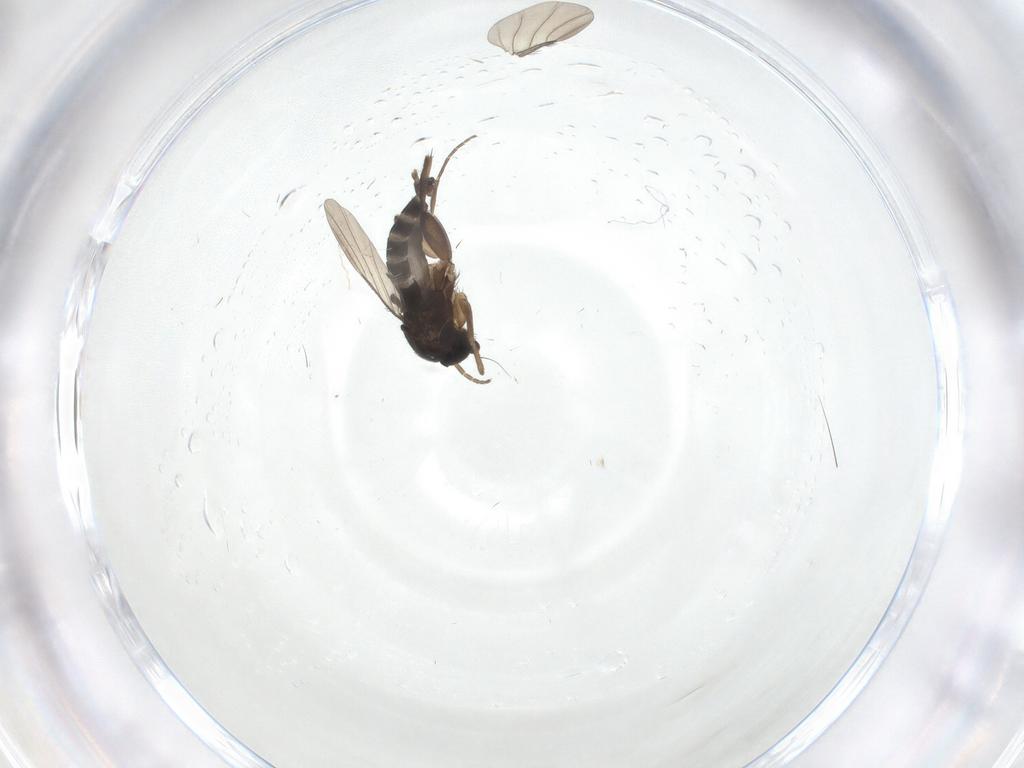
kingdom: Animalia
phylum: Arthropoda
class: Insecta
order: Diptera
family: Phoridae
